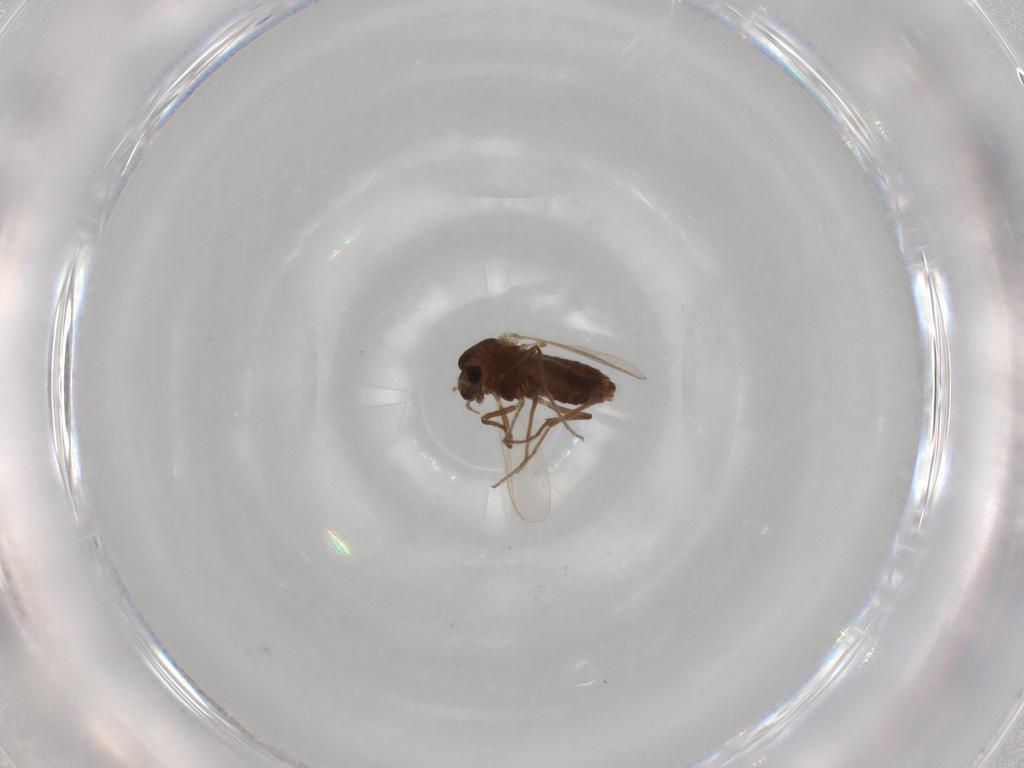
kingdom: Animalia
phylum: Arthropoda
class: Insecta
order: Diptera
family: Chironomidae
